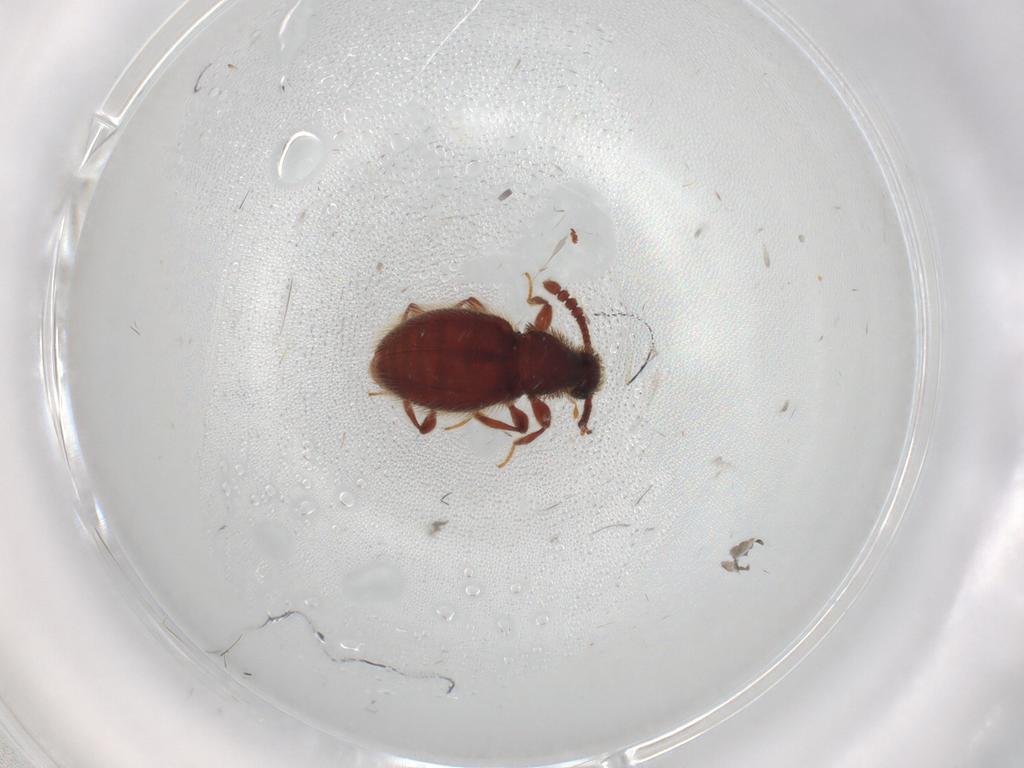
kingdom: Animalia
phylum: Arthropoda
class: Insecta
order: Coleoptera
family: Staphylinidae
